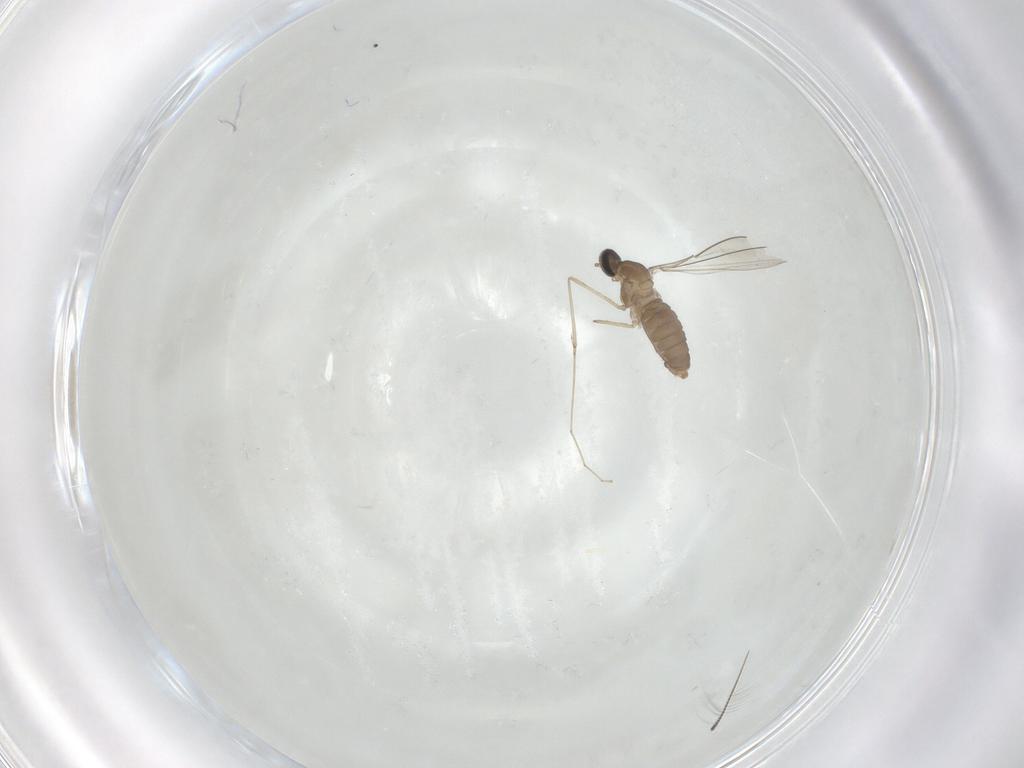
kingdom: Animalia
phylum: Arthropoda
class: Insecta
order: Diptera
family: Cecidomyiidae
